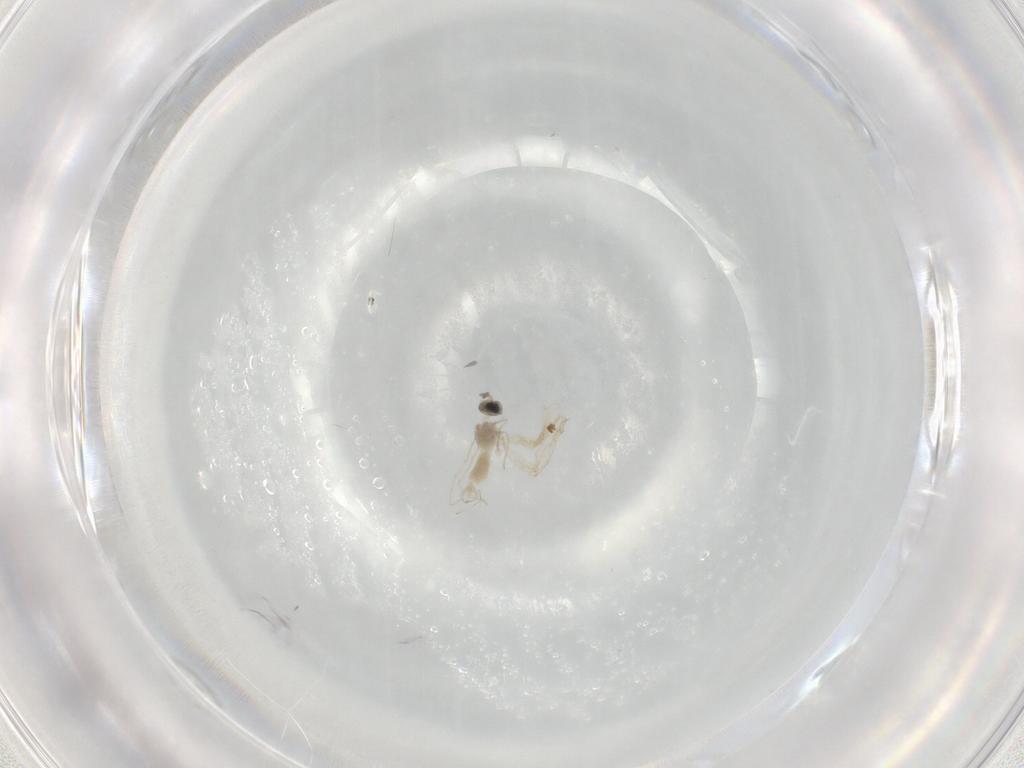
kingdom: Animalia
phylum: Arthropoda
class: Insecta
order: Diptera
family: Cecidomyiidae
